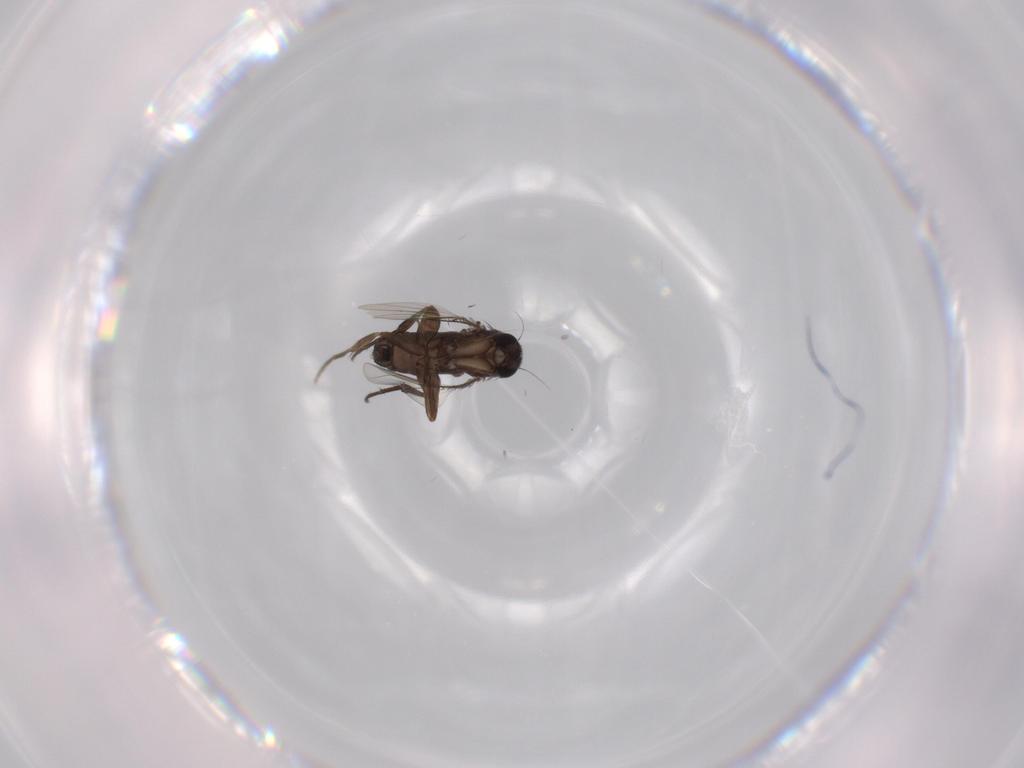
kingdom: Animalia
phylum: Arthropoda
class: Insecta
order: Diptera
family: Phoridae
